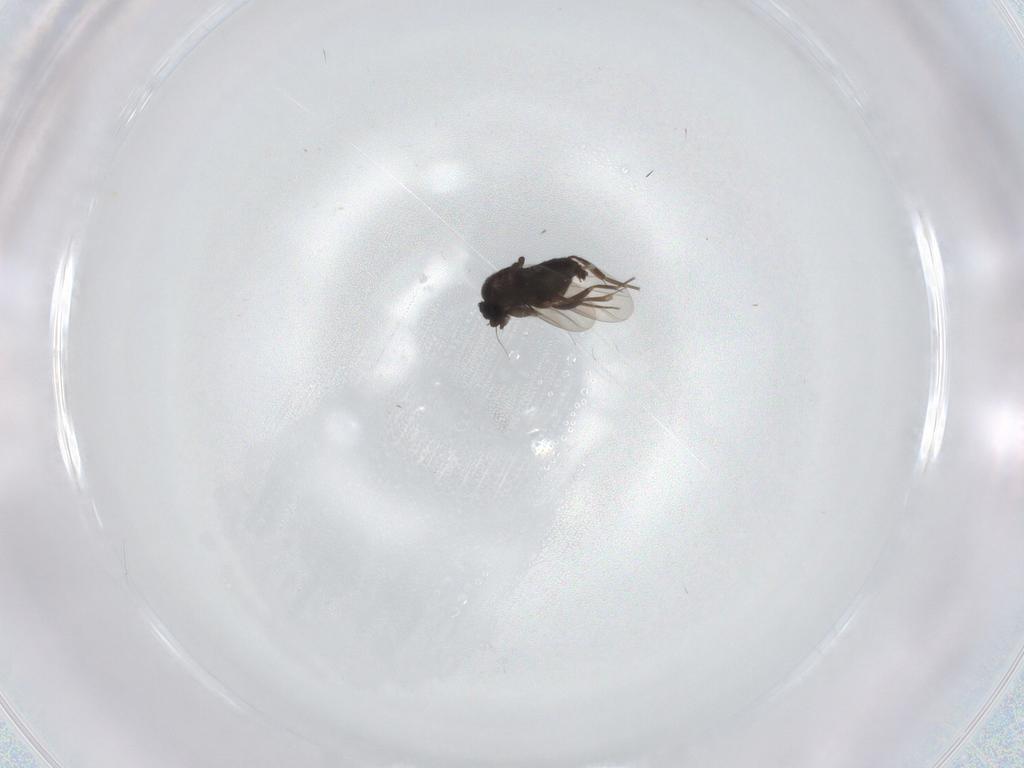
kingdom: Animalia
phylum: Arthropoda
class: Insecta
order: Diptera
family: Phoridae
